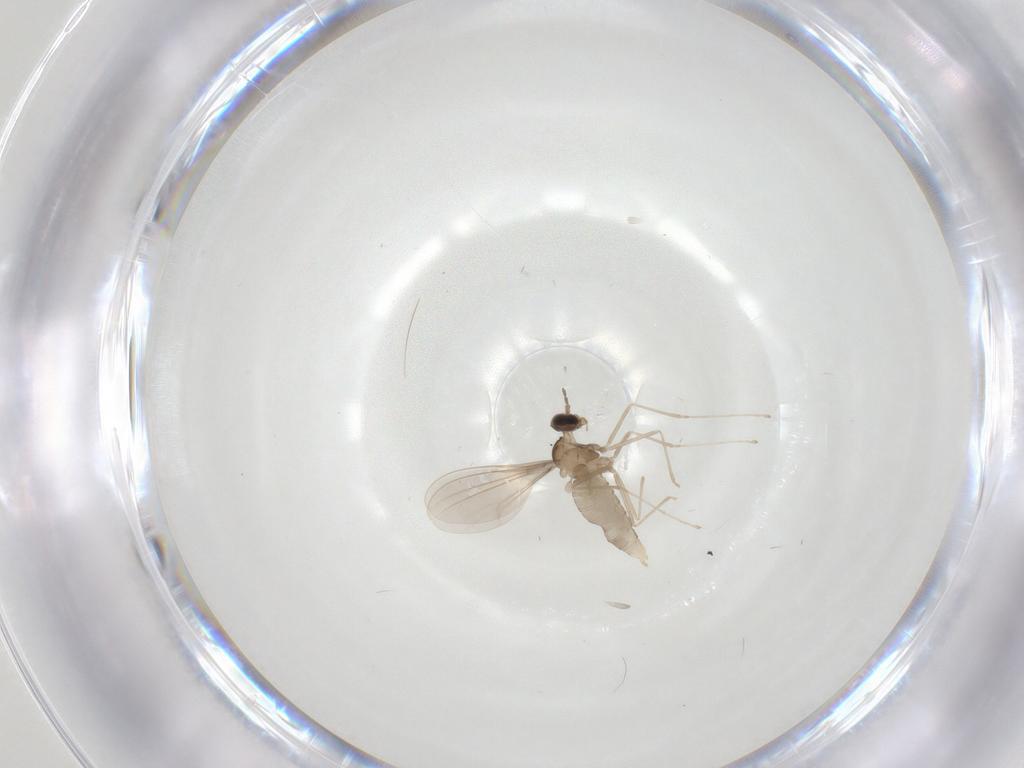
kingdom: Animalia
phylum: Arthropoda
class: Insecta
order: Diptera
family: Cecidomyiidae
